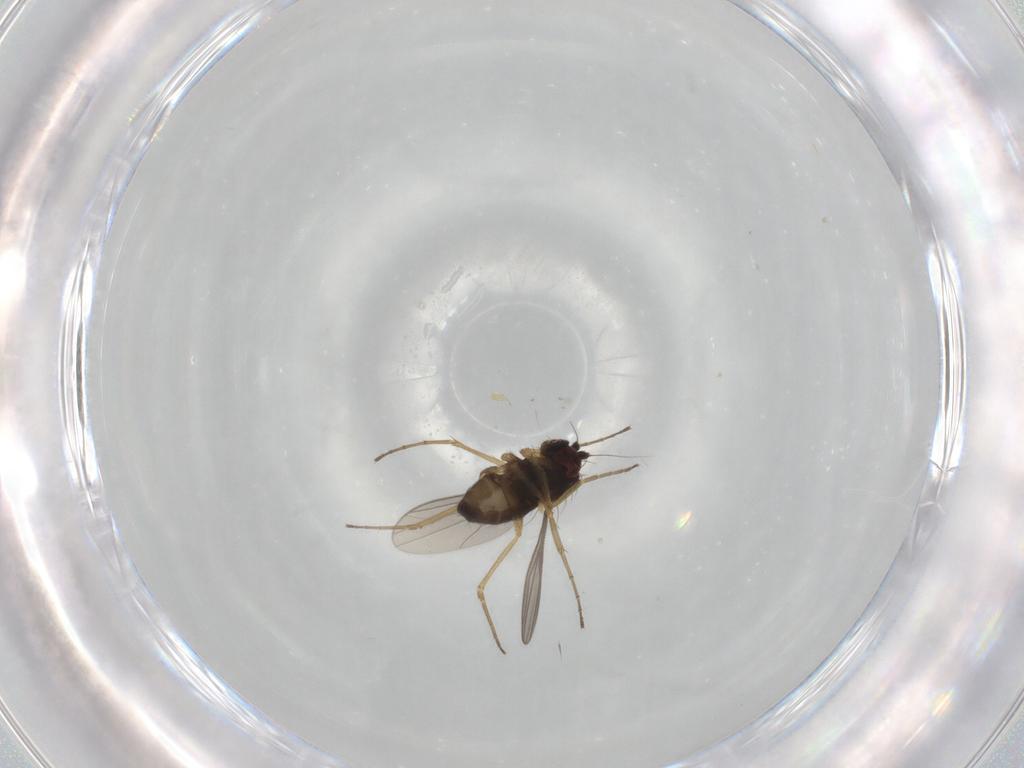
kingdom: Animalia
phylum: Arthropoda
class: Insecta
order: Diptera
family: Dolichopodidae
